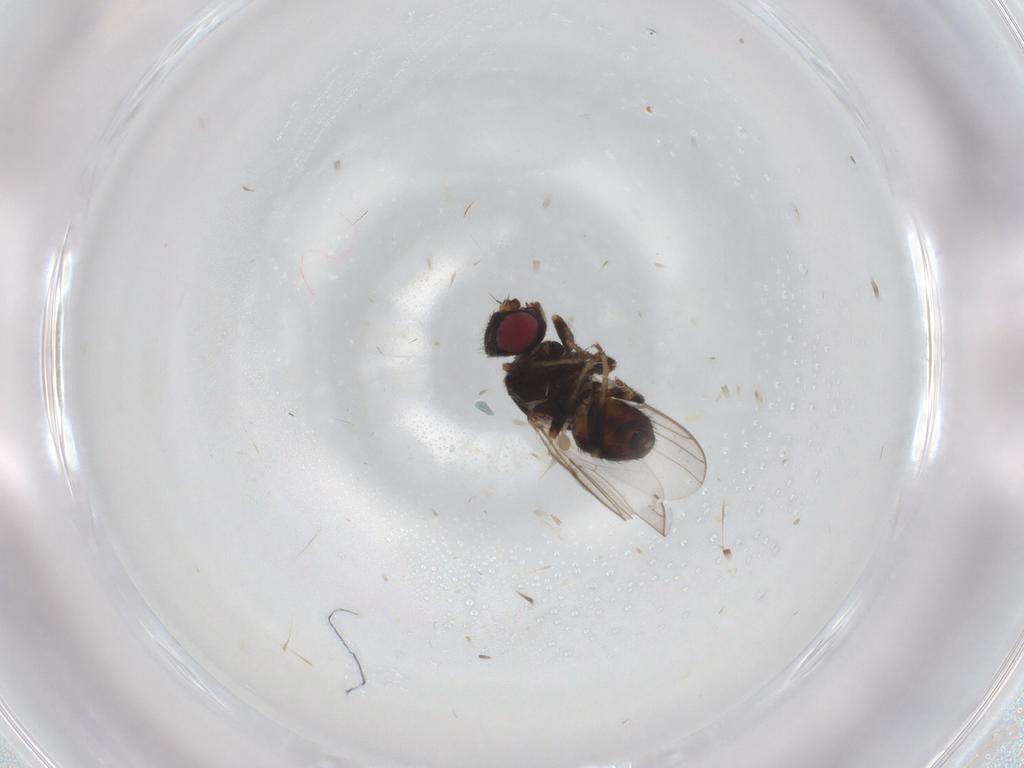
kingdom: Animalia
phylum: Arthropoda
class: Insecta
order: Diptera
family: Chloropidae
